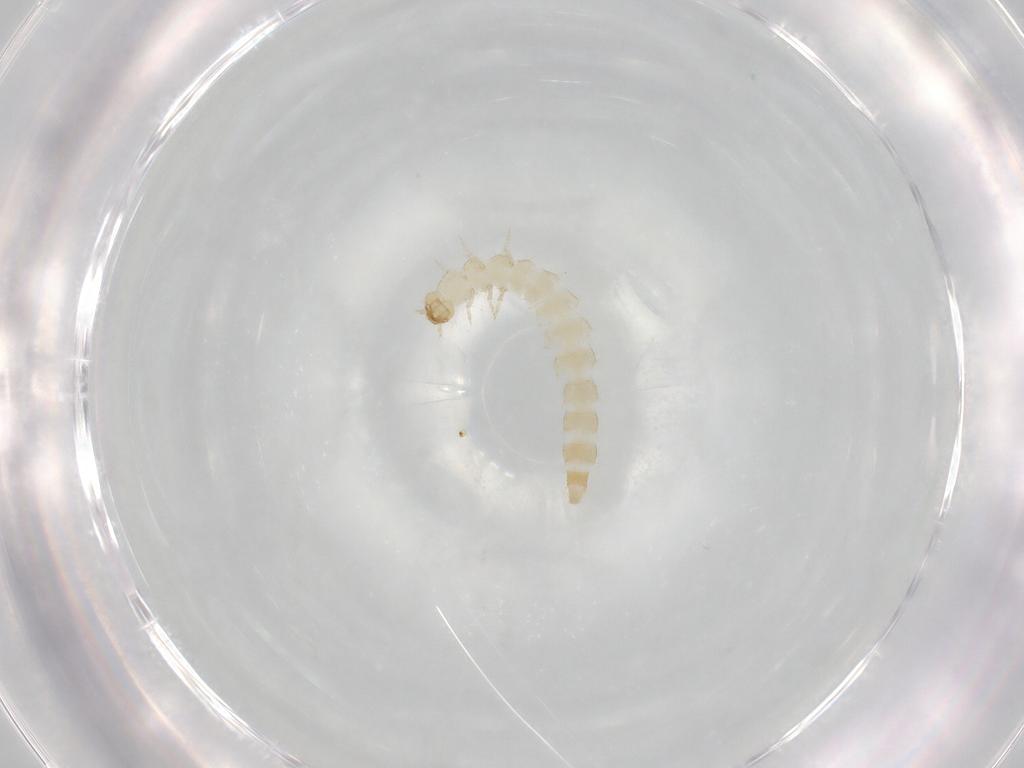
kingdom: Animalia
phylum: Arthropoda
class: Insecta
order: Coleoptera
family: Staphylinidae
